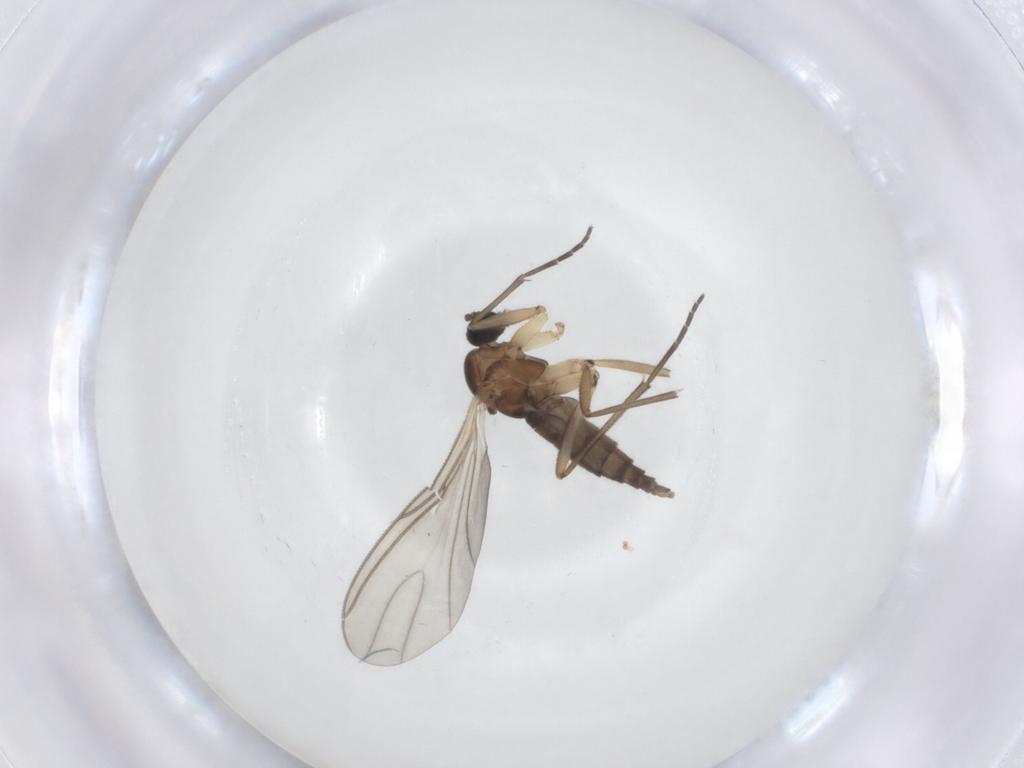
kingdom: Animalia
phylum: Arthropoda
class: Insecta
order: Diptera
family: Sciaridae
